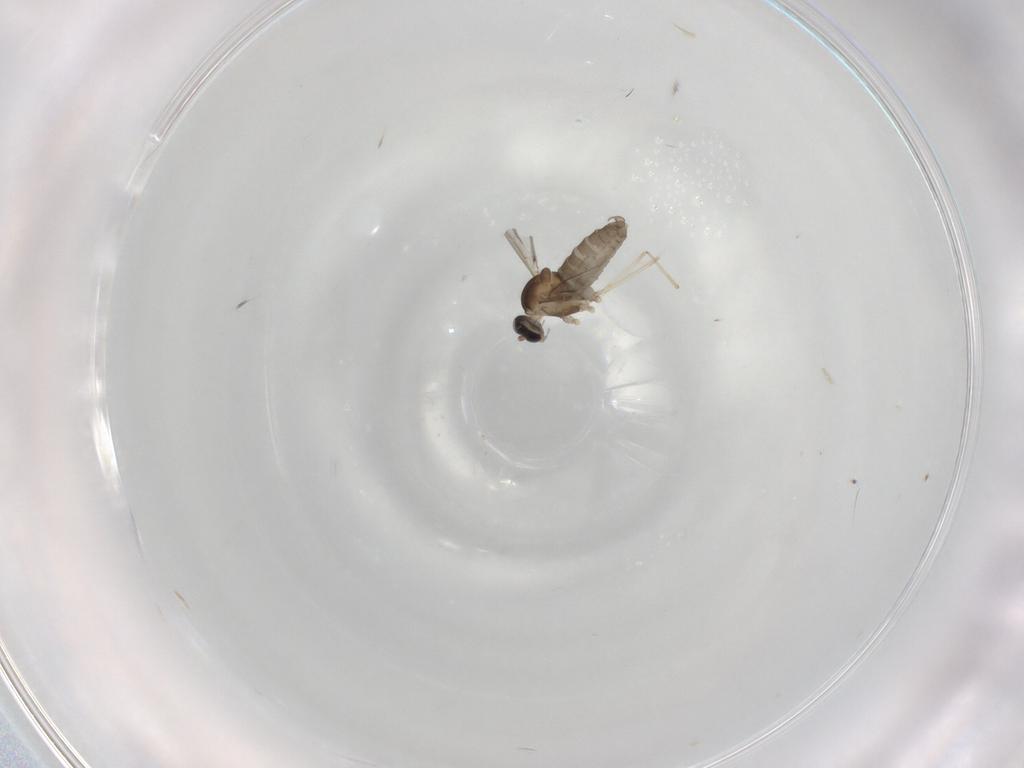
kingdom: Animalia
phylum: Arthropoda
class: Insecta
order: Diptera
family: Cecidomyiidae
